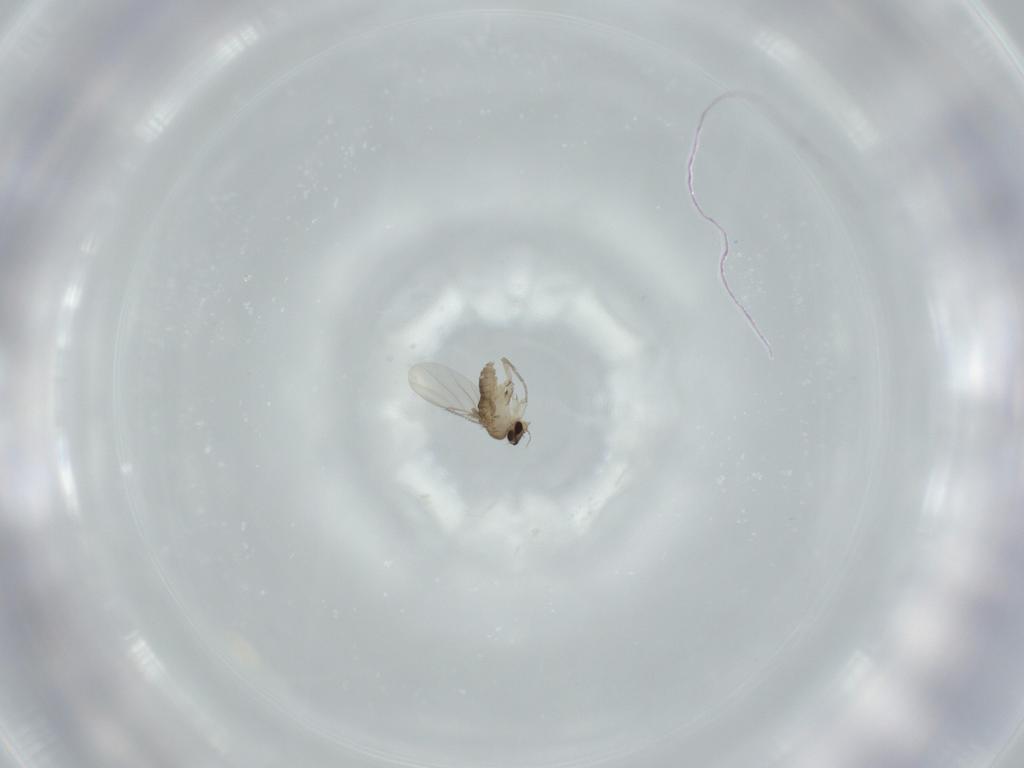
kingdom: Animalia
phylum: Arthropoda
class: Insecta
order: Diptera
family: Phoridae
